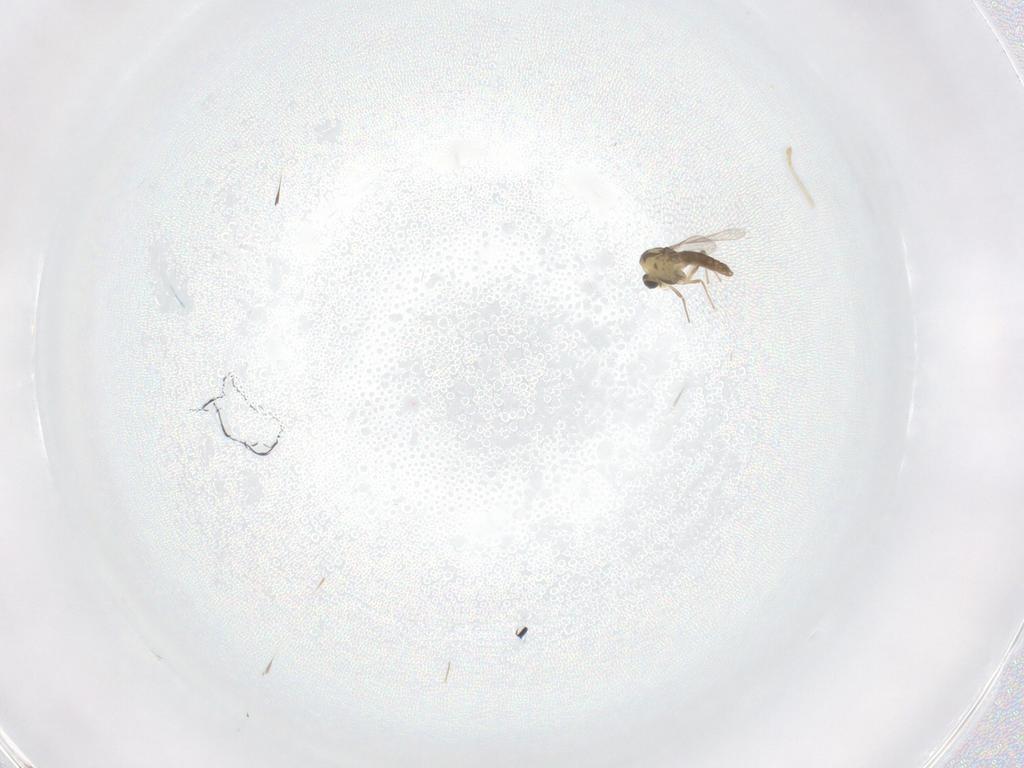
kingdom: Animalia
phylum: Arthropoda
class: Insecta
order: Diptera
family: Chironomidae
